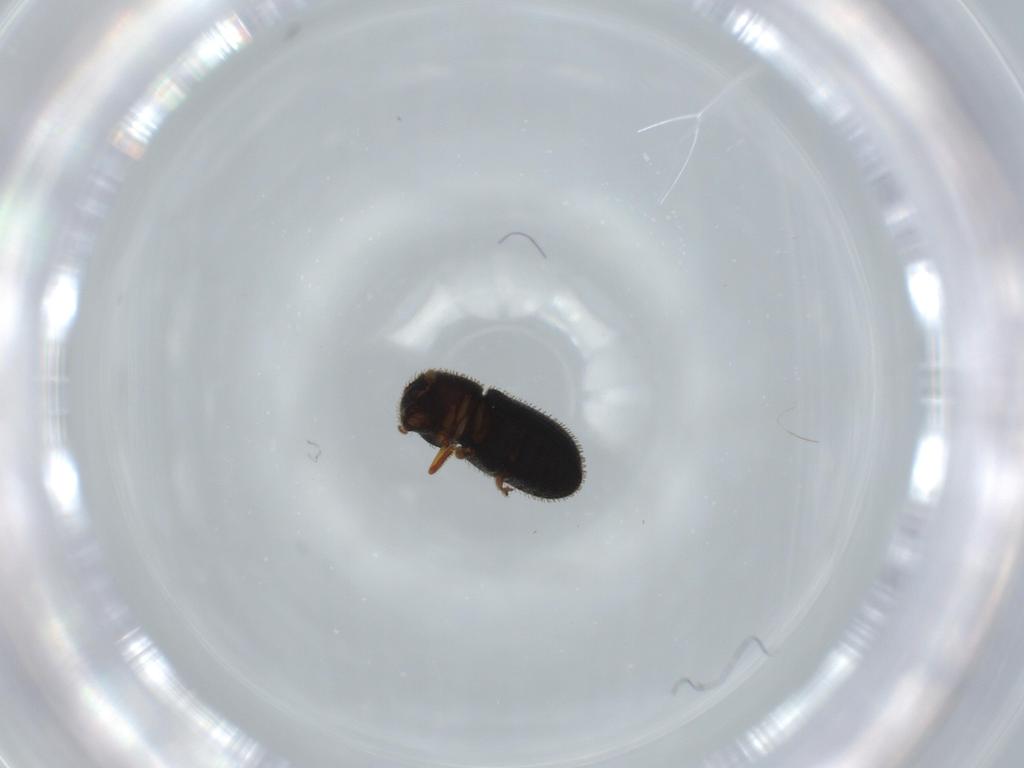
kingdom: Animalia
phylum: Arthropoda
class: Insecta
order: Coleoptera
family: Curculionidae
